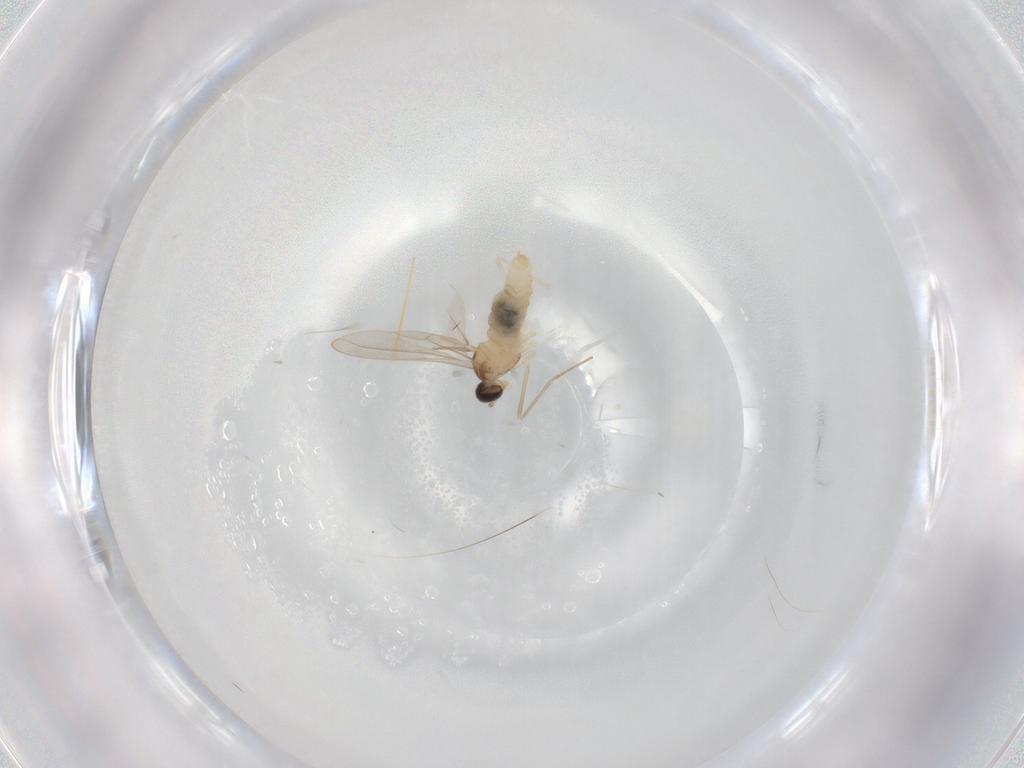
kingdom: Animalia
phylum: Arthropoda
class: Insecta
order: Diptera
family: Cecidomyiidae
